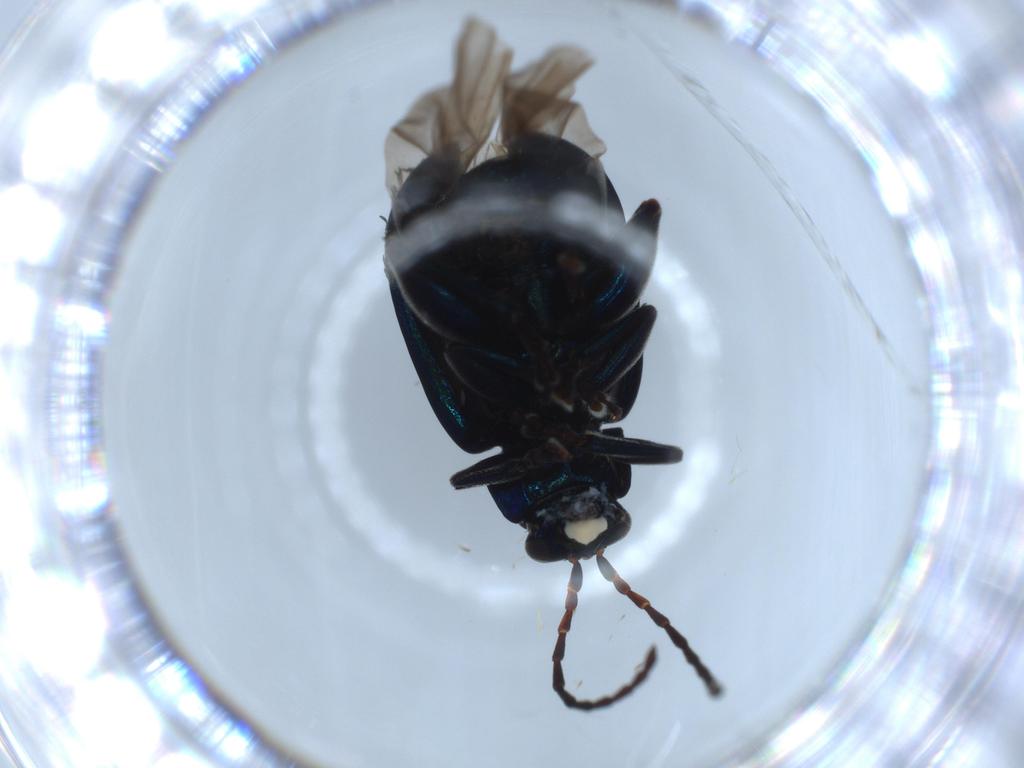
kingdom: Animalia
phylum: Arthropoda
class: Insecta
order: Coleoptera
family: Chrysomelidae
